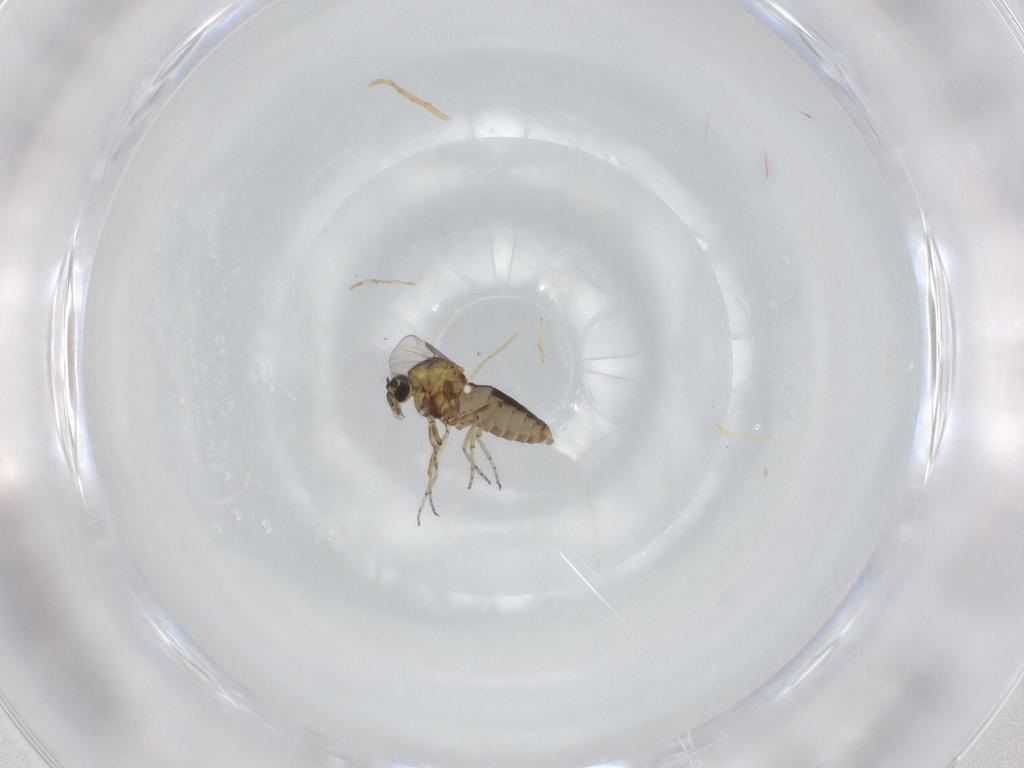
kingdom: Animalia
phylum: Arthropoda
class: Insecta
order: Diptera
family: Ceratopogonidae
